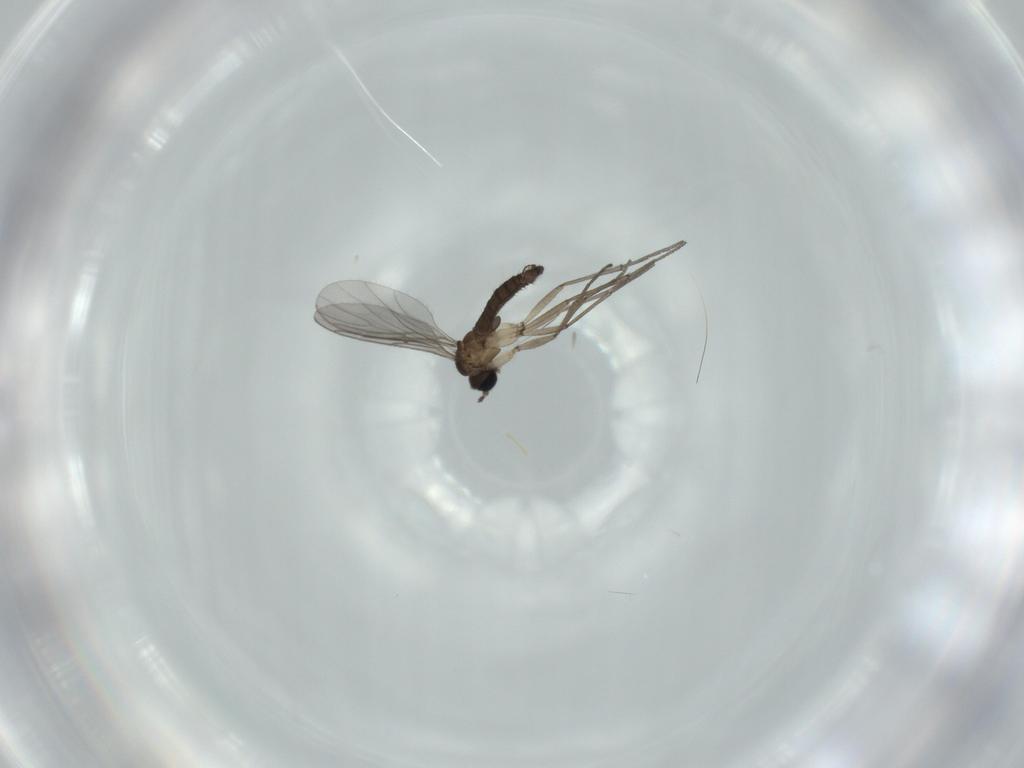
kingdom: Animalia
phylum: Arthropoda
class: Insecta
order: Diptera
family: Sciaridae
